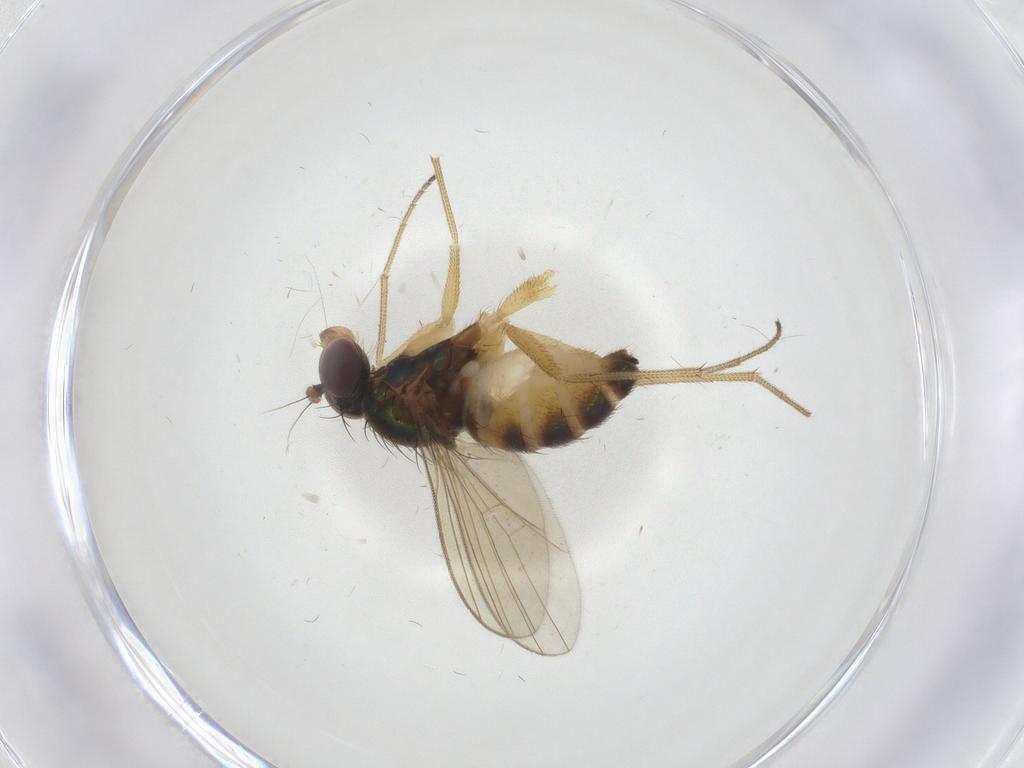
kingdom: Animalia
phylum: Arthropoda
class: Insecta
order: Diptera
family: Dolichopodidae
